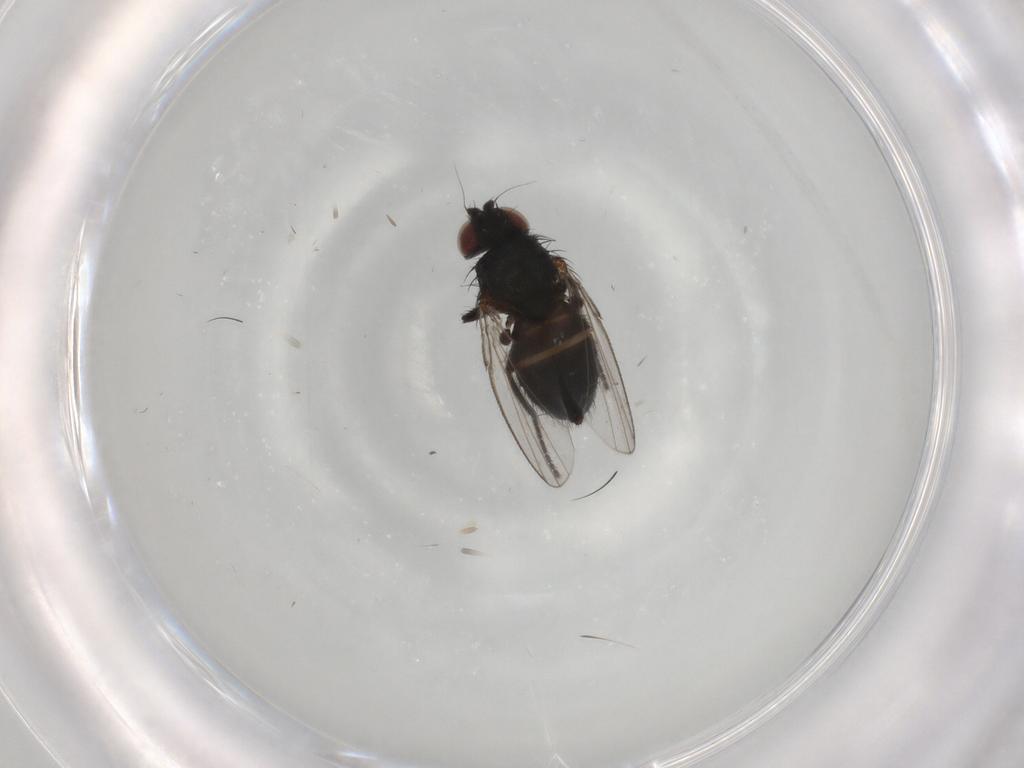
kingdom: Animalia
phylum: Arthropoda
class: Insecta
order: Diptera
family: Milichiidae
